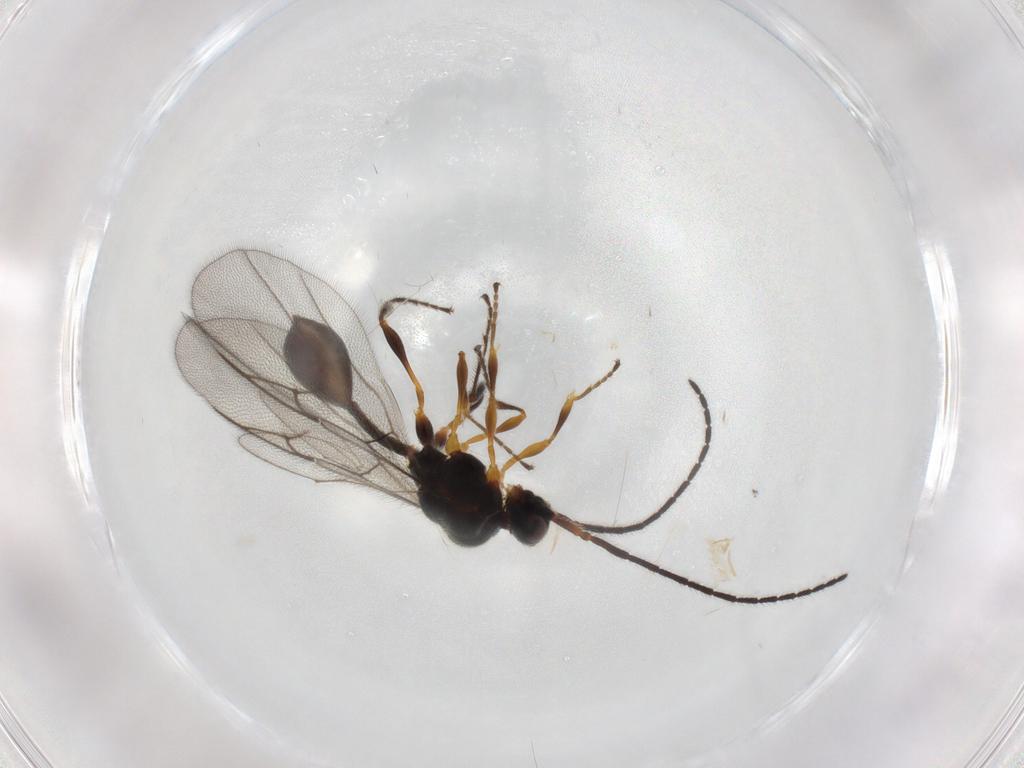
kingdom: Animalia
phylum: Arthropoda
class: Insecta
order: Hymenoptera
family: Diapriidae
